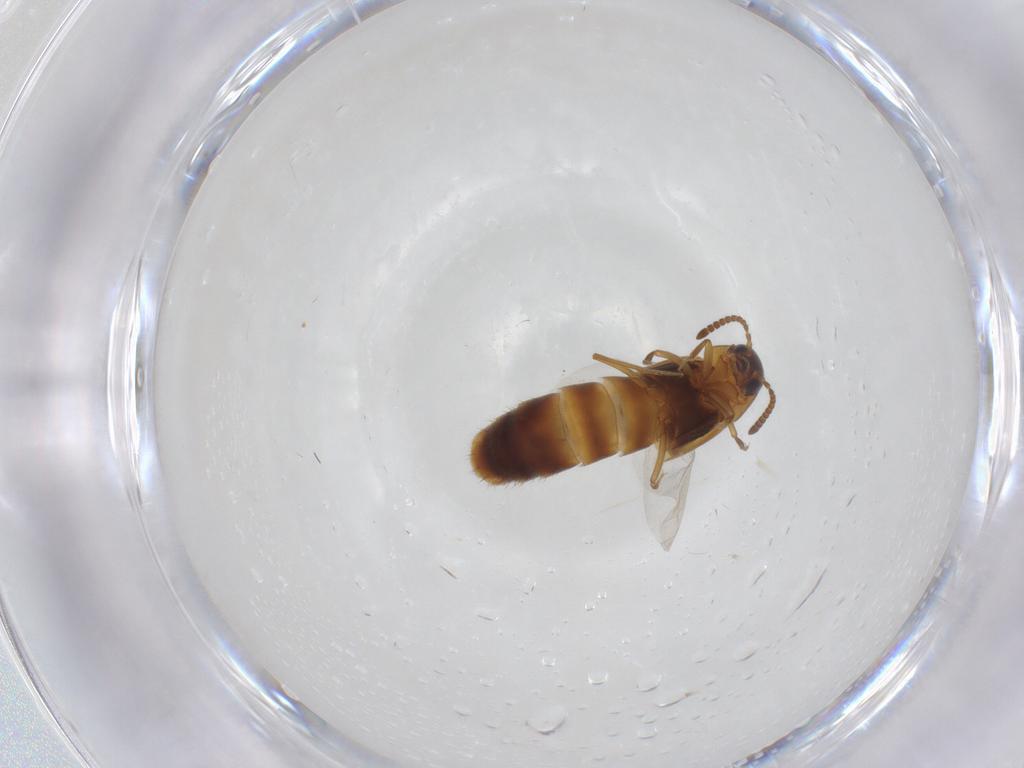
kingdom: Animalia
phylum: Arthropoda
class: Insecta
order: Coleoptera
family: Staphylinidae
